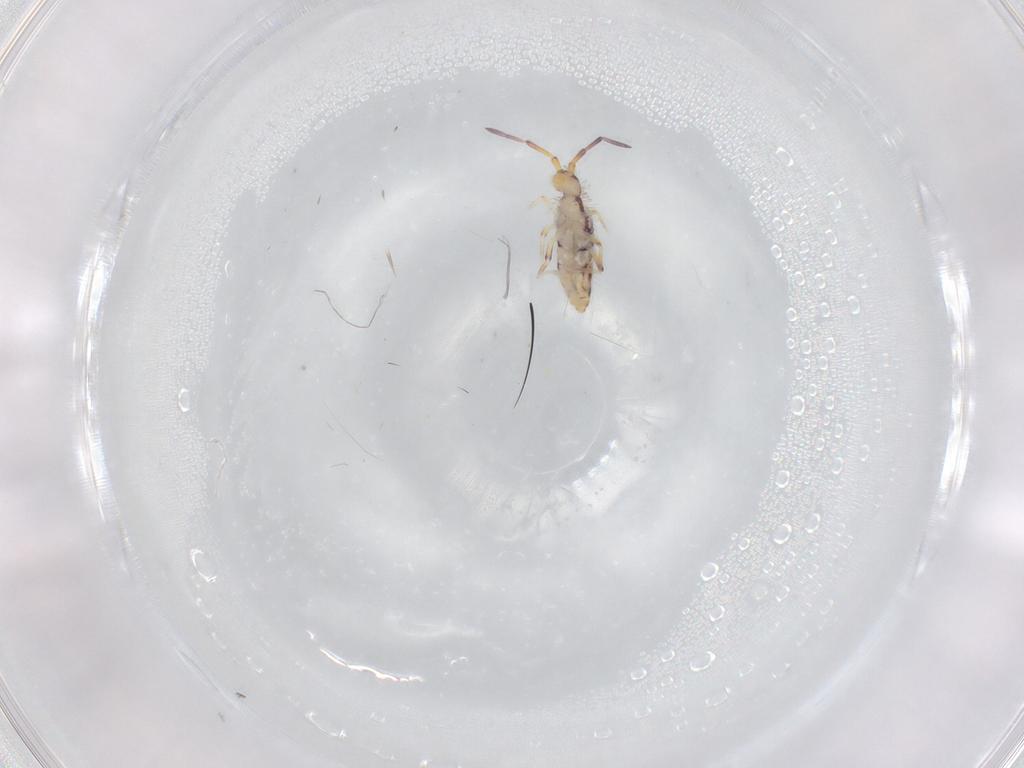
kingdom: Animalia
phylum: Arthropoda
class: Collembola
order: Entomobryomorpha
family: Entomobryidae
